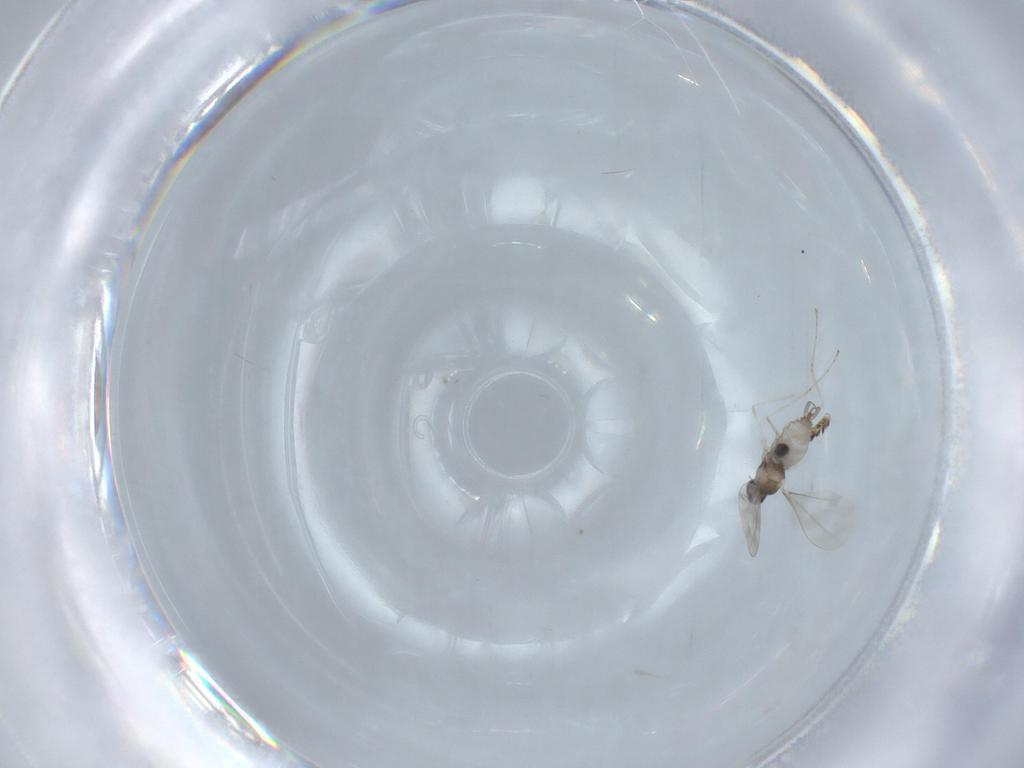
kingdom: Animalia
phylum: Arthropoda
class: Insecta
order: Diptera
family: Cecidomyiidae
